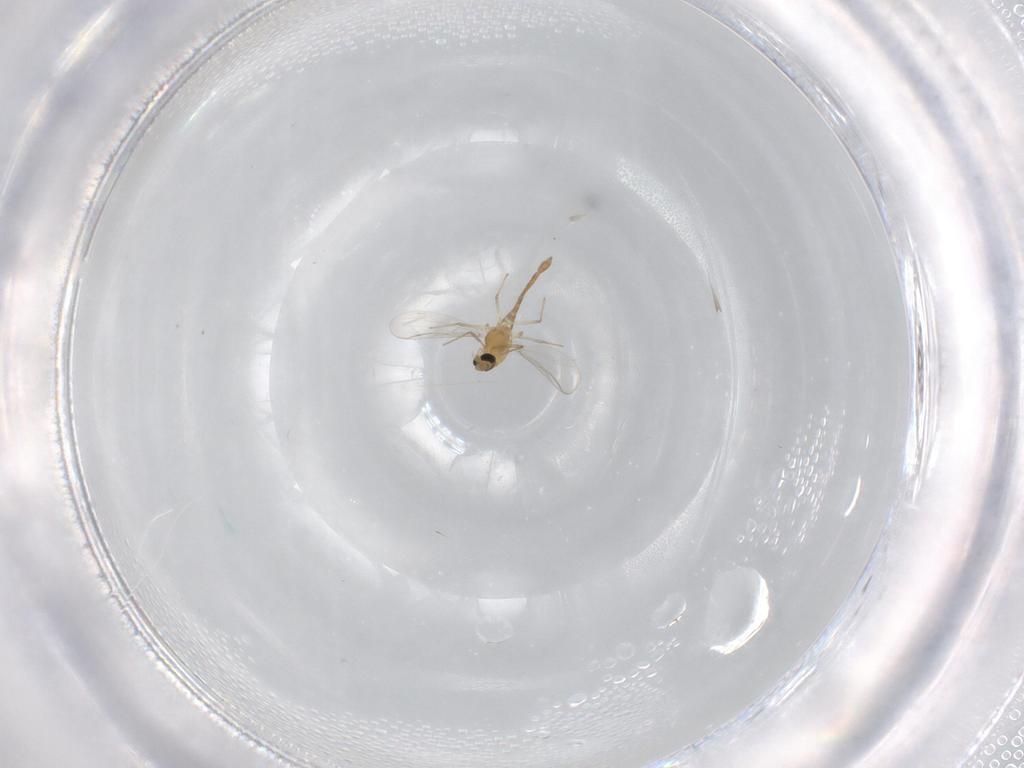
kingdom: Animalia
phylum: Arthropoda
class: Insecta
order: Diptera
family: Chironomidae
